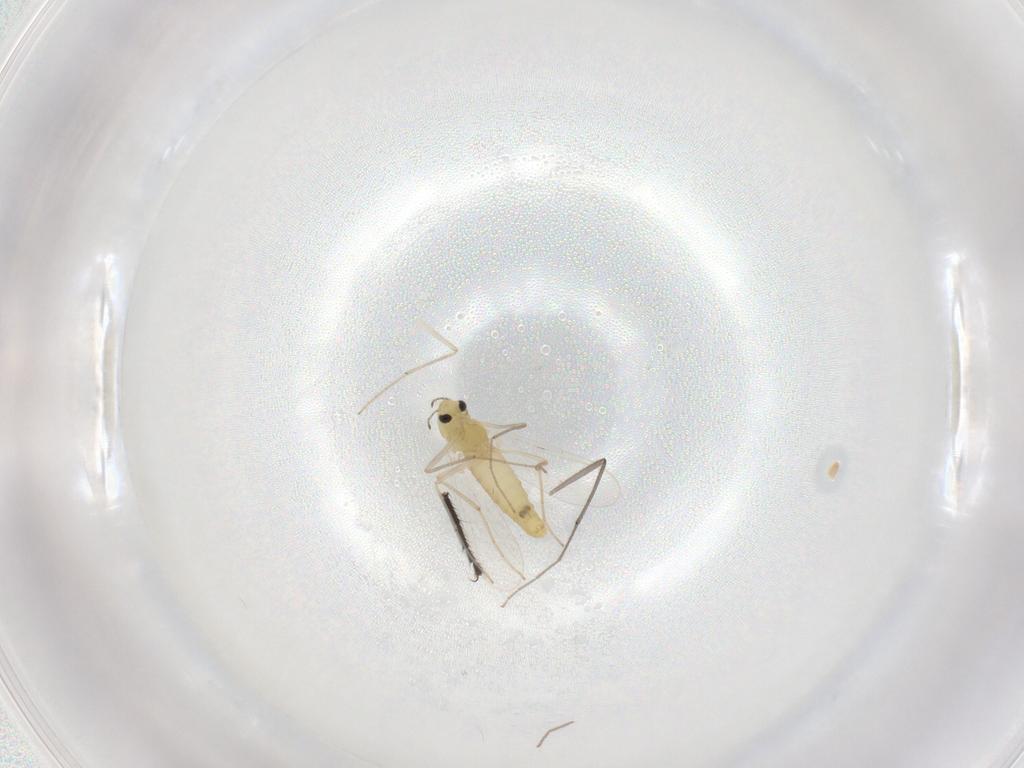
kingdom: Animalia
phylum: Arthropoda
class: Insecta
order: Diptera
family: Chironomidae
